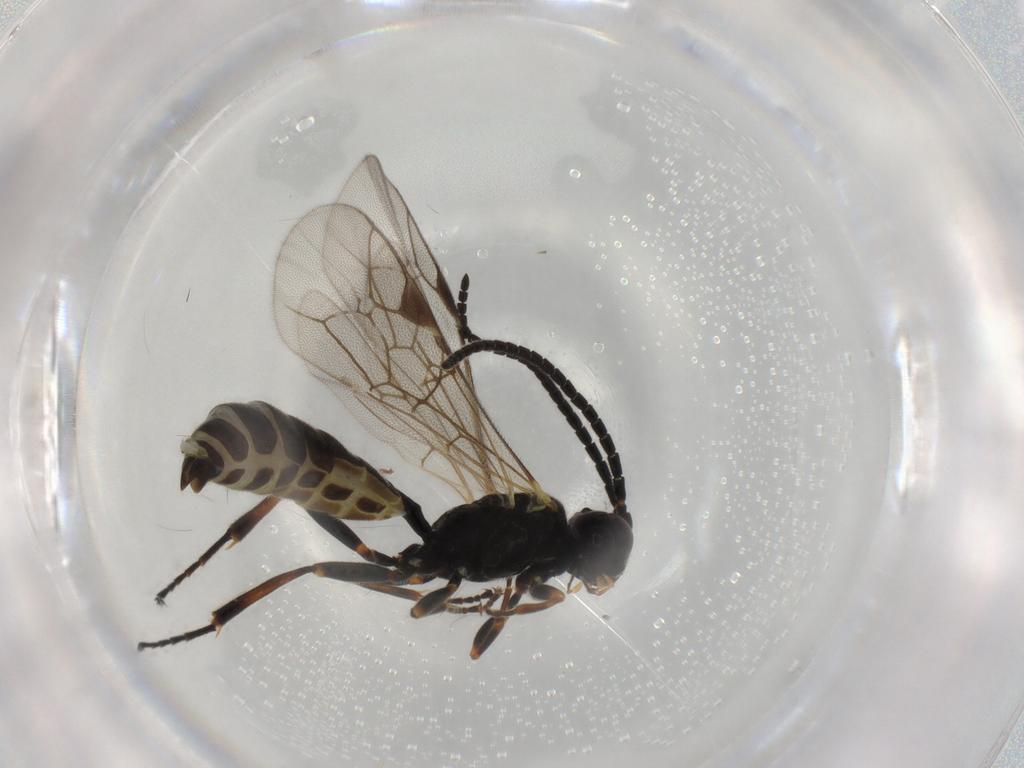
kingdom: Animalia
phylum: Arthropoda
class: Insecta
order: Hymenoptera
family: Ichneumonidae
